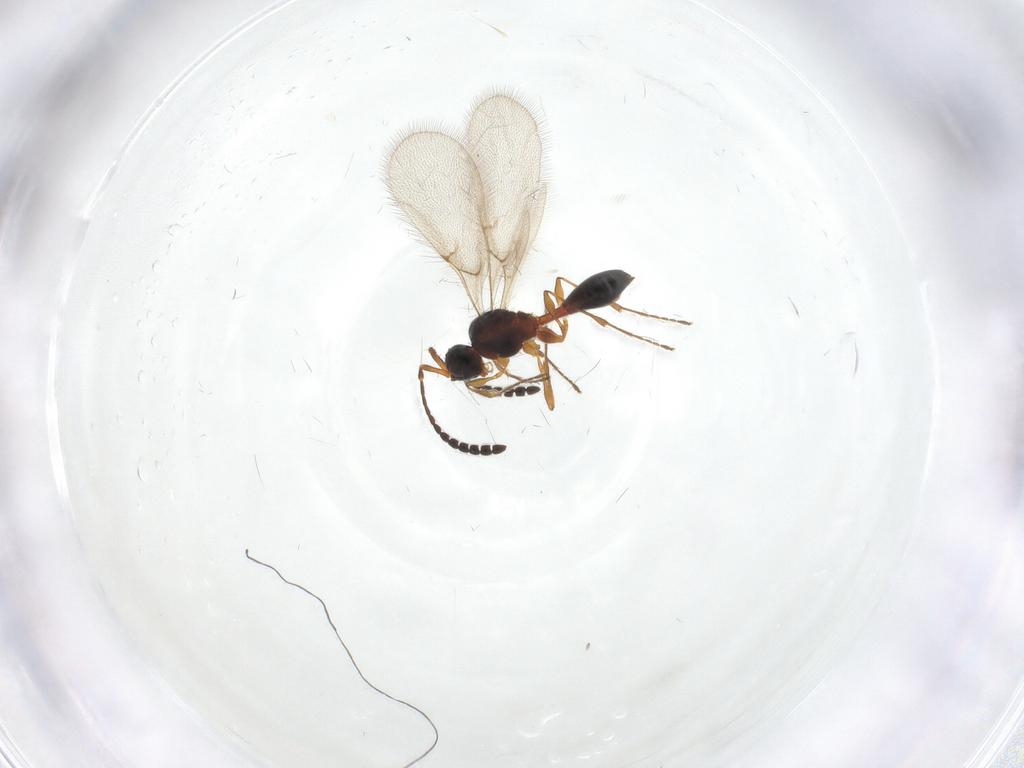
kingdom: Animalia
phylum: Arthropoda
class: Insecta
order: Hymenoptera
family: Diapriidae
